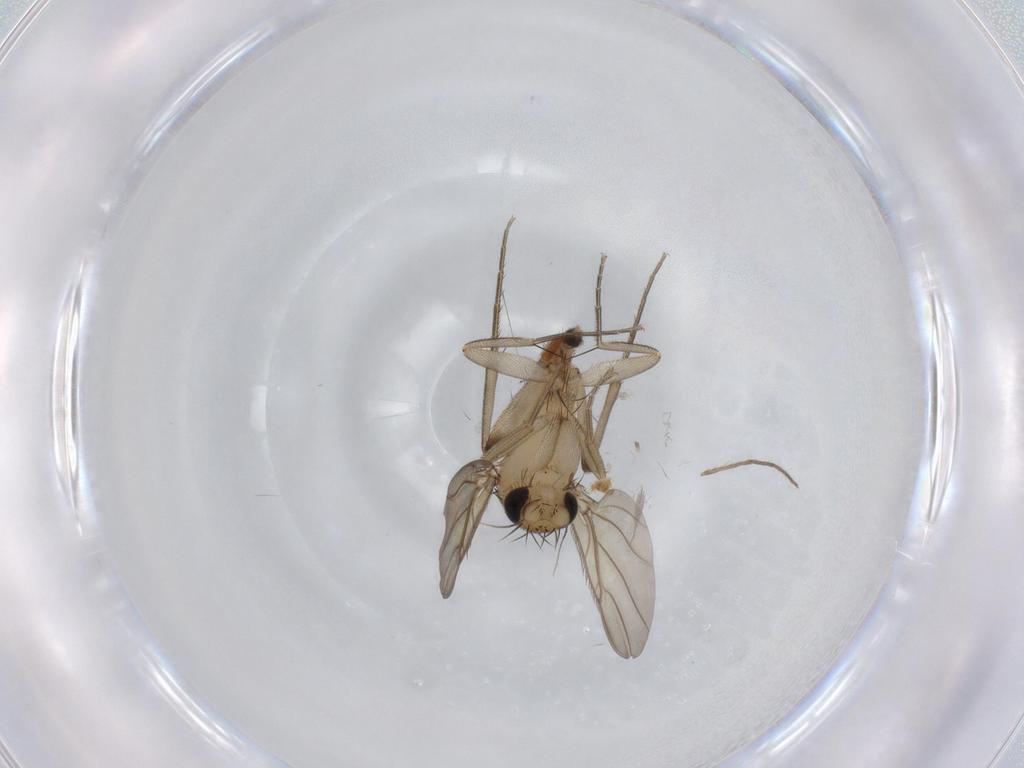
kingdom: Animalia
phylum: Arthropoda
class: Insecta
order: Diptera
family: Phoridae
